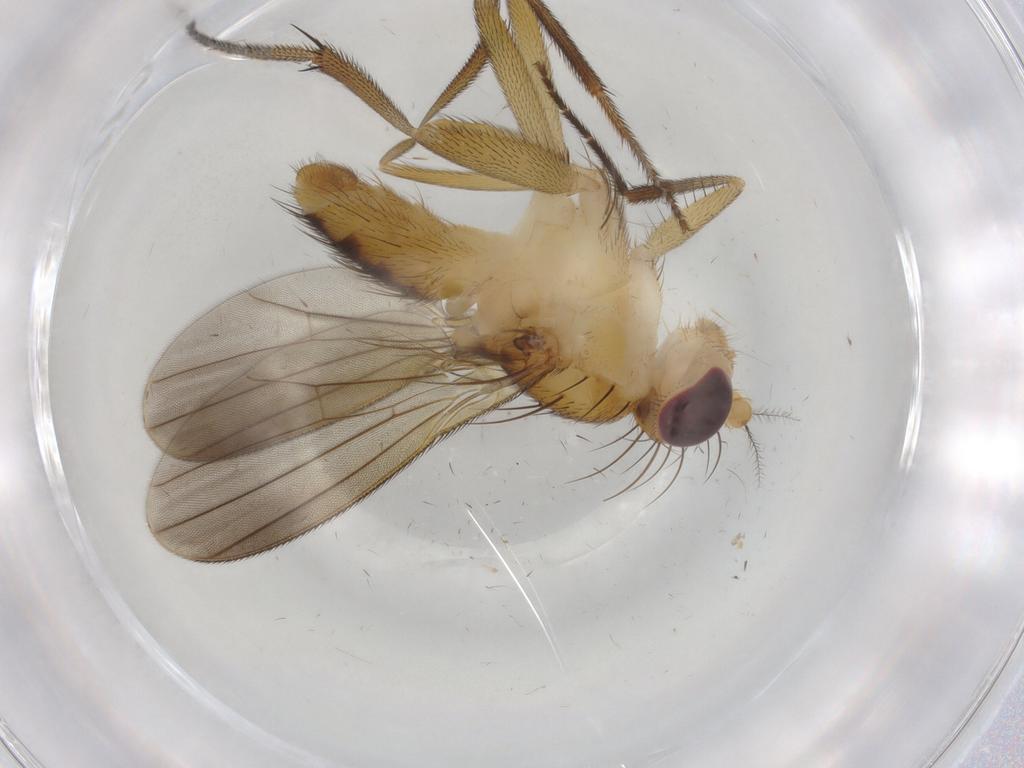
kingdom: Animalia
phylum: Arthropoda
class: Insecta
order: Diptera
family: Clusiidae
